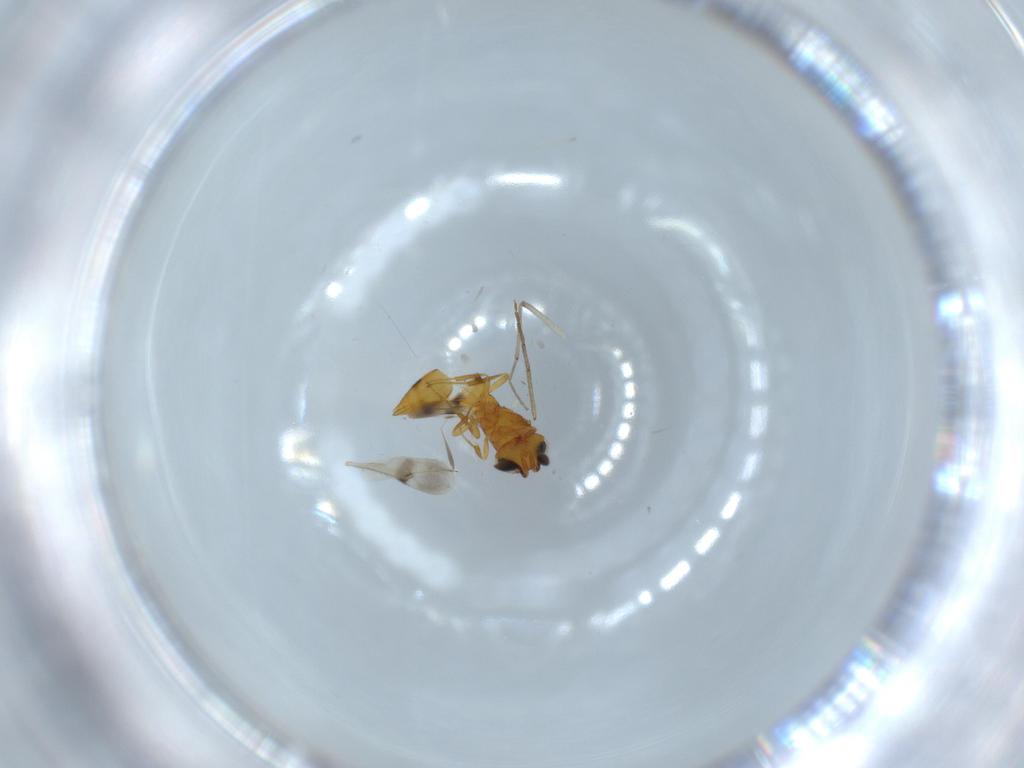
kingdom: Animalia
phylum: Arthropoda
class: Insecta
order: Hymenoptera
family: Scelionidae
